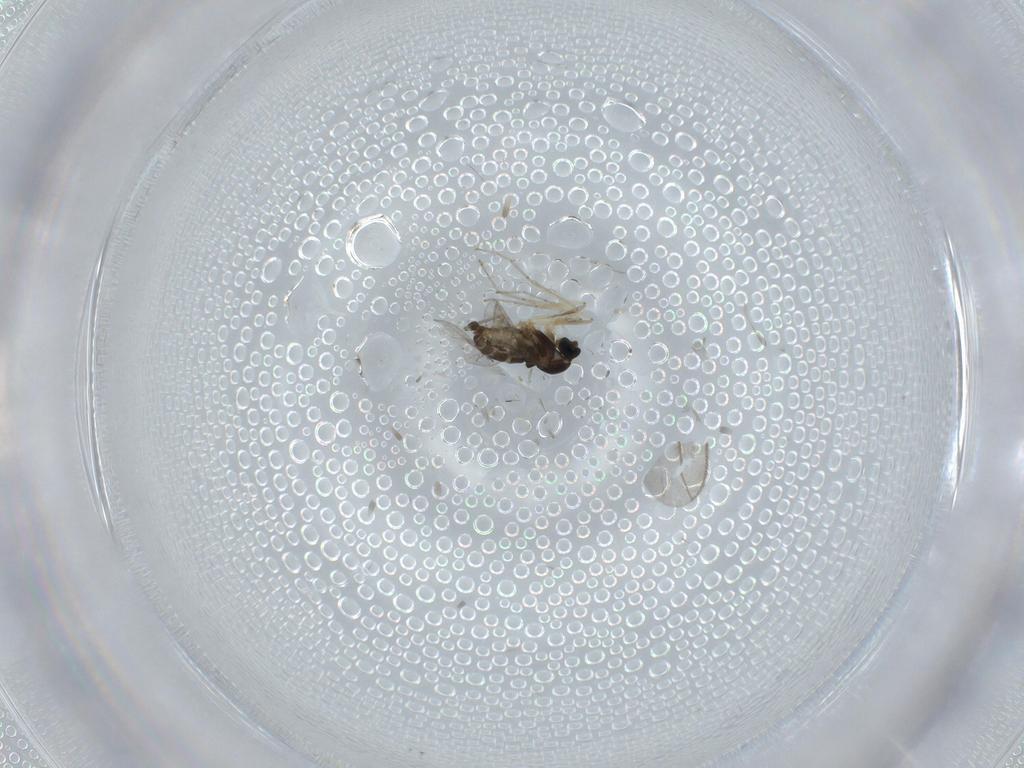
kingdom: Animalia
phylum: Arthropoda
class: Insecta
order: Diptera
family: Cecidomyiidae
